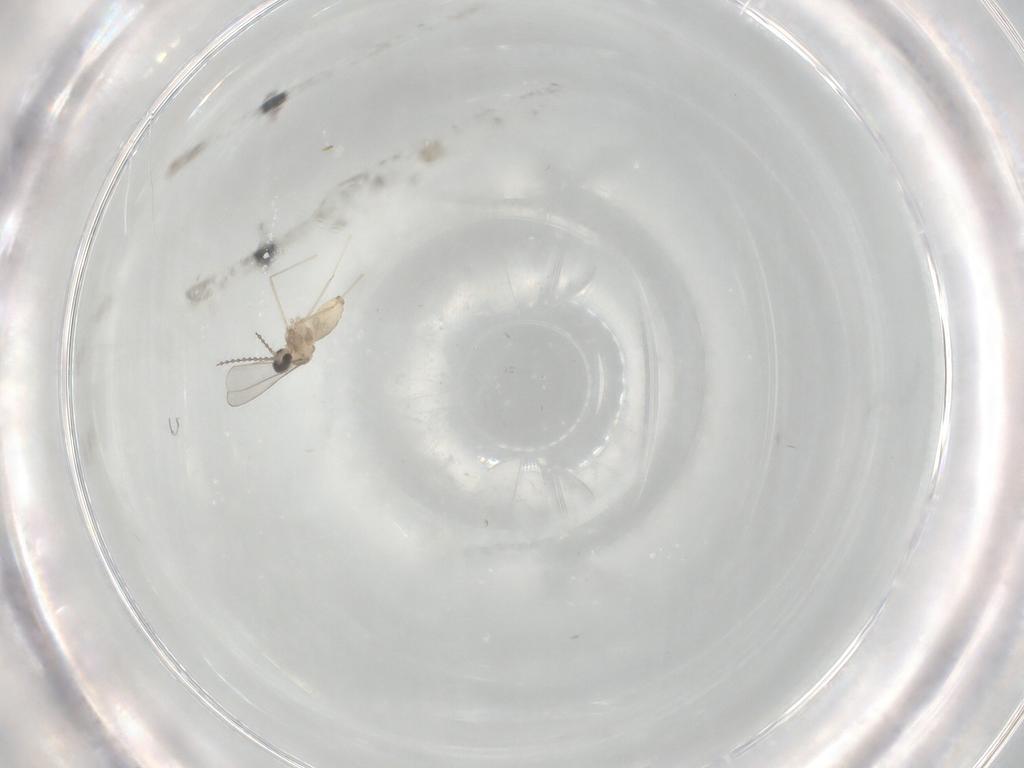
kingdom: Animalia
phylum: Arthropoda
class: Insecta
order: Diptera
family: Cecidomyiidae
